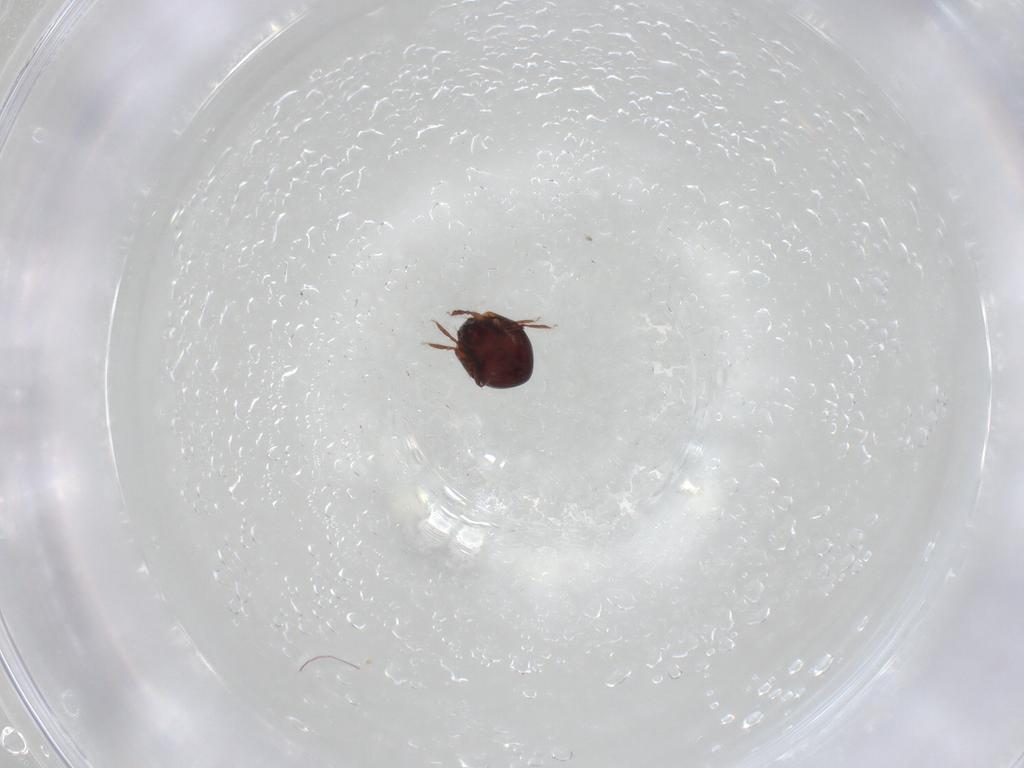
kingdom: Animalia
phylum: Arthropoda
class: Arachnida
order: Sarcoptiformes
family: Humerobatidae
